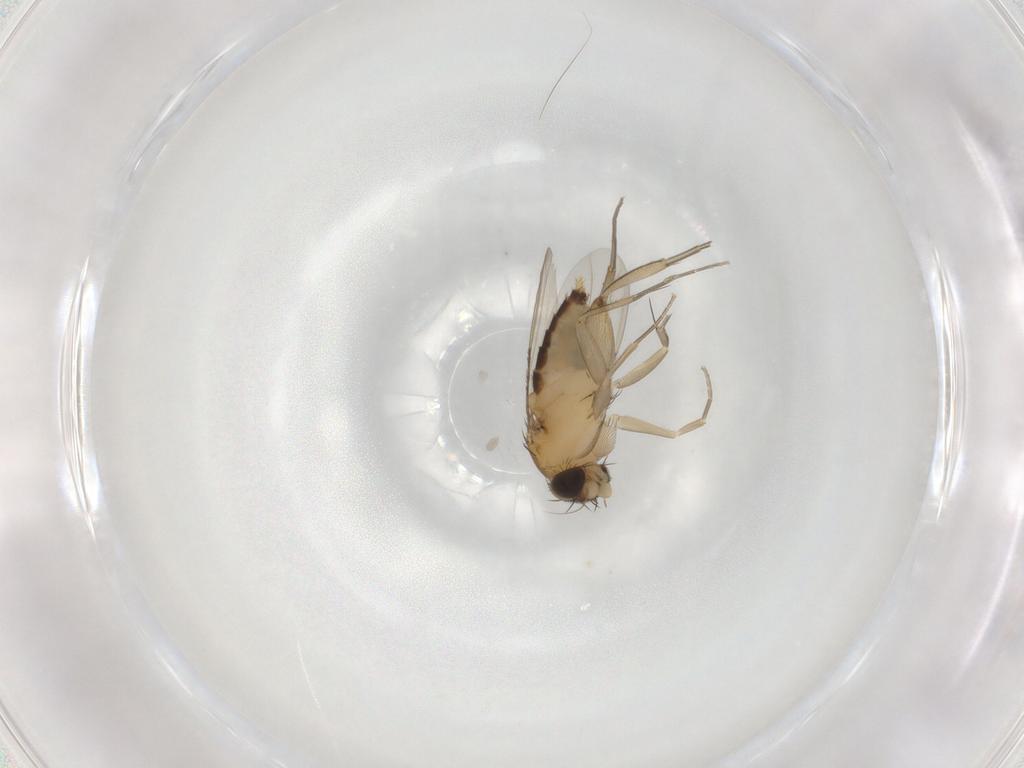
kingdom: Animalia
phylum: Arthropoda
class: Insecta
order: Diptera
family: Phoridae
